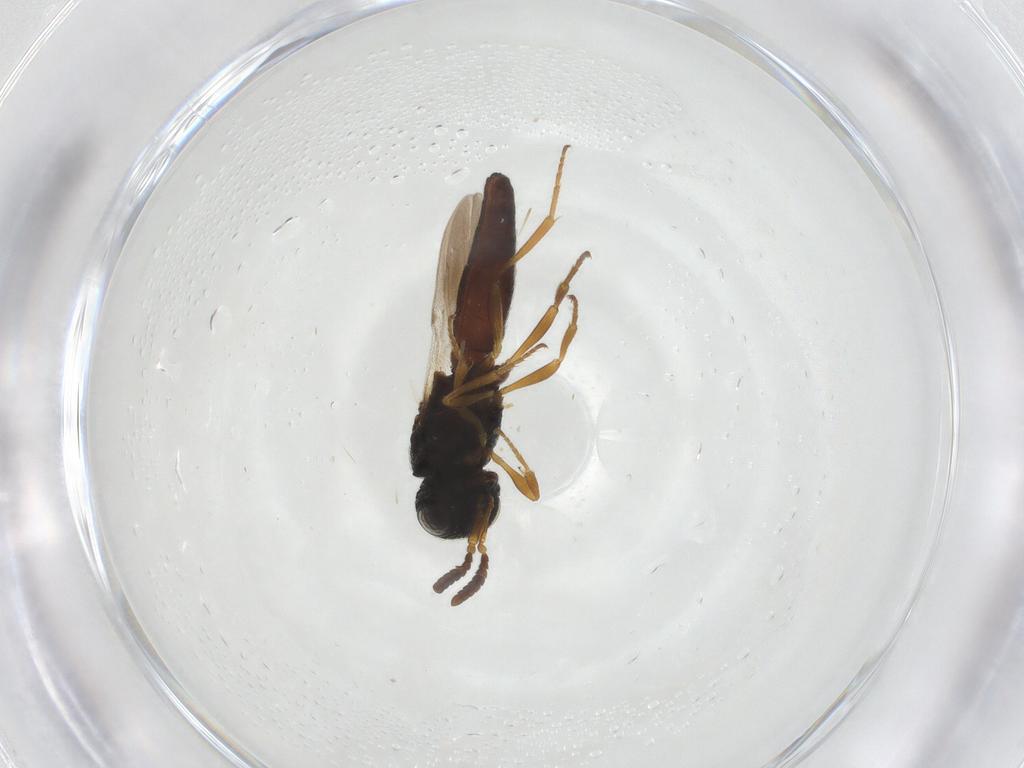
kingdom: Animalia
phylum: Arthropoda
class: Insecta
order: Hymenoptera
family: Scelionidae
